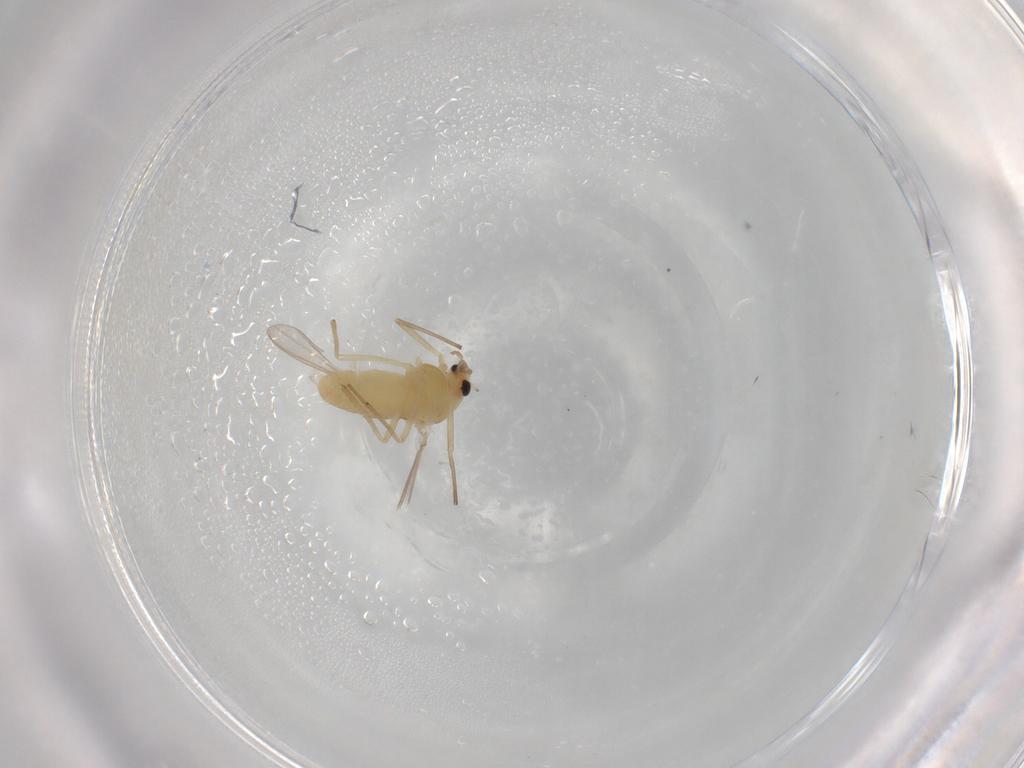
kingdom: Animalia
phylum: Arthropoda
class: Insecta
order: Diptera
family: Chironomidae
